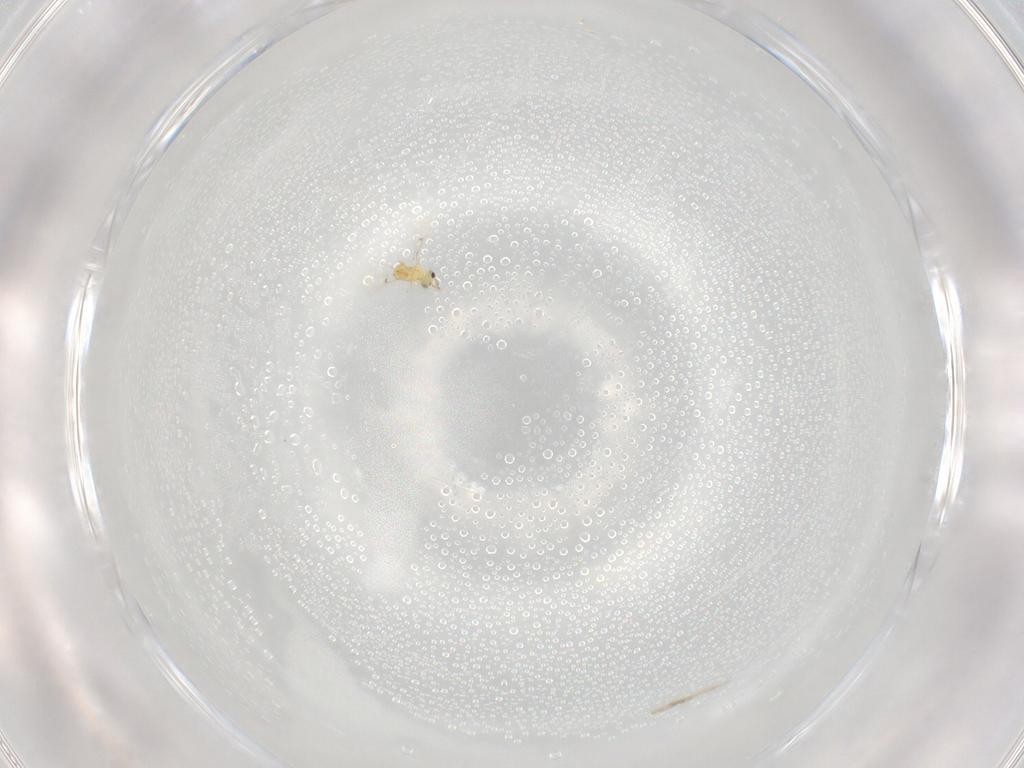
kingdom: Animalia
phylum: Arthropoda
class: Insecta
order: Hymenoptera
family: Trichogrammatidae
